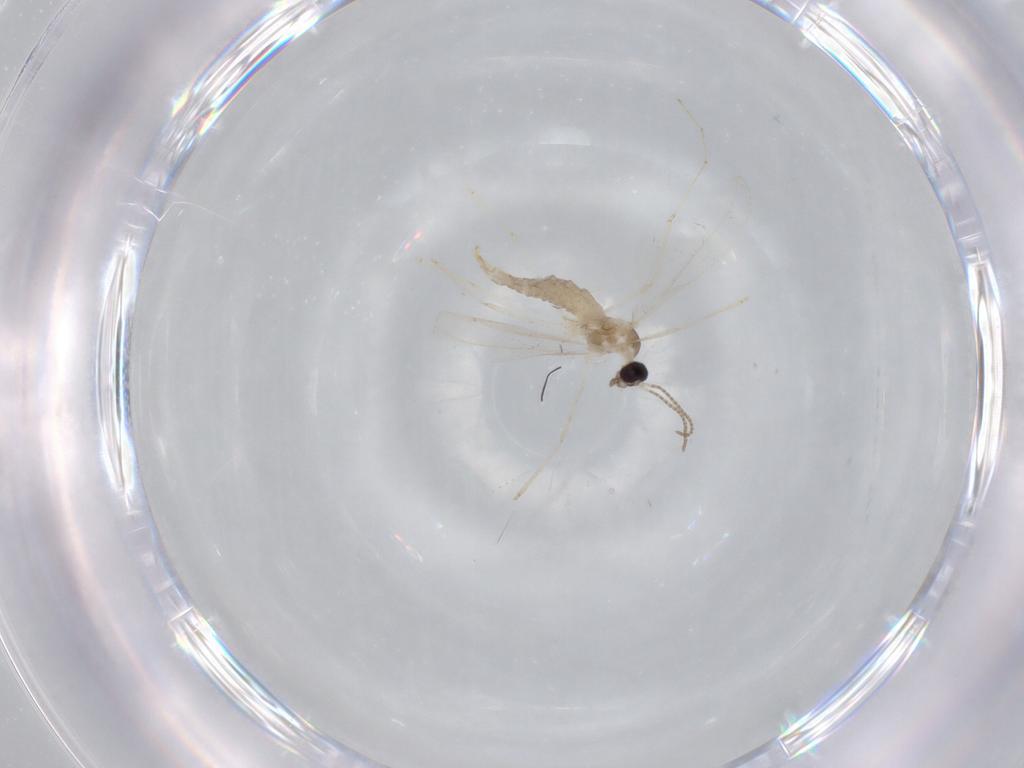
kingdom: Animalia
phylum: Arthropoda
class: Insecta
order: Diptera
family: Cecidomyiidae
